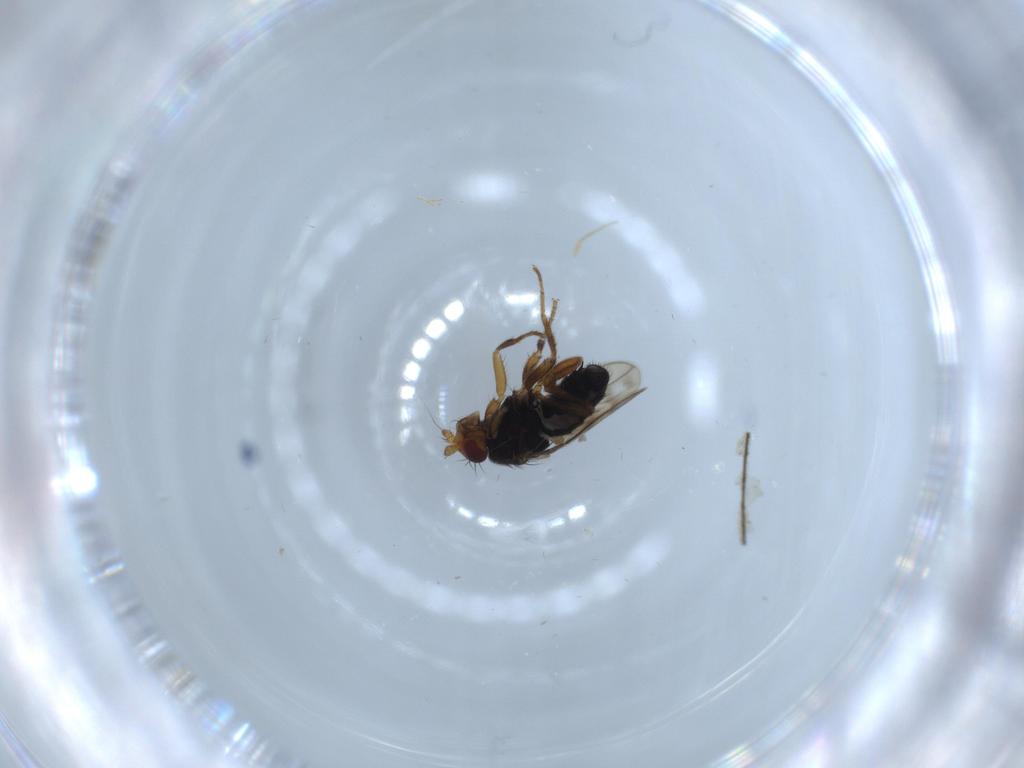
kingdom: Animalia
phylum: Arthropoda
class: Insecta
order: Diptera
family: Sphaeroceridae
